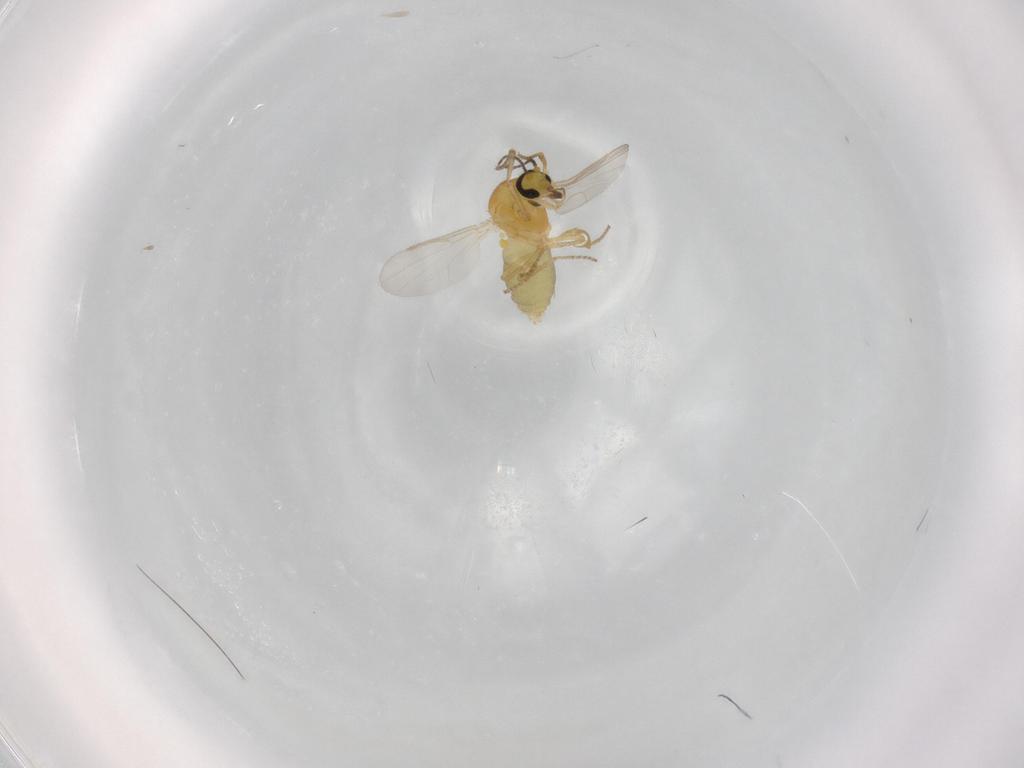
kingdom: Animalia
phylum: Arthropoda
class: Insecta
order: Diptera
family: Ceratopogonidae
